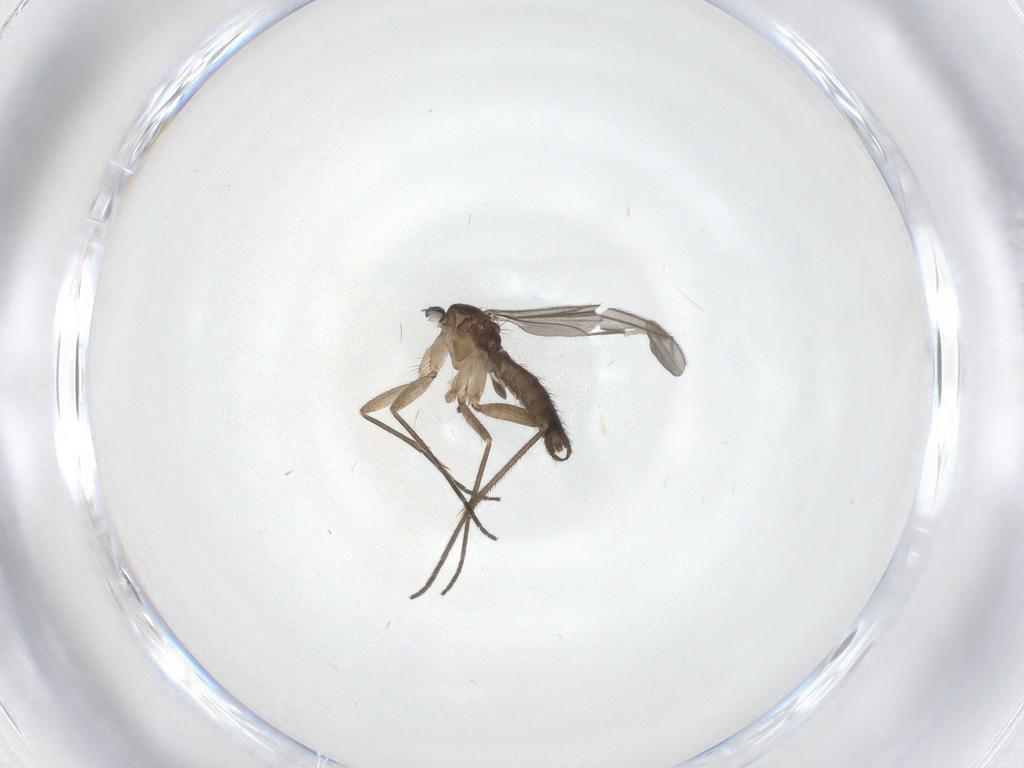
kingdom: Animalia
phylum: Arthropoda
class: Insecta
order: Diptera
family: Sciaridae
